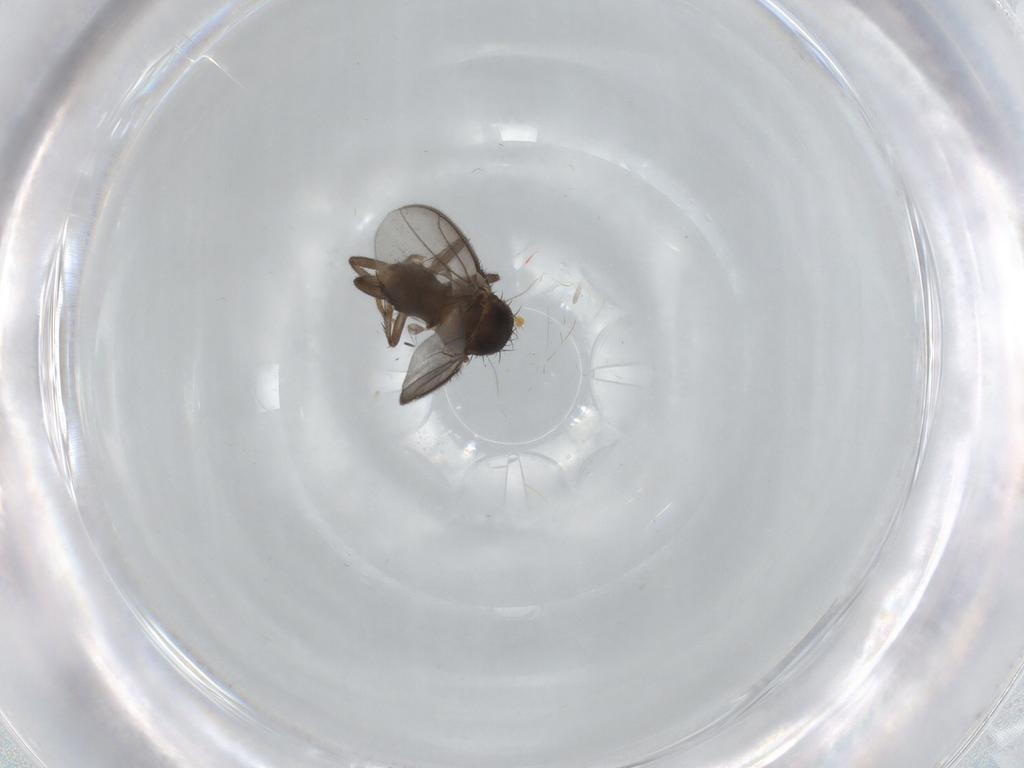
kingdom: Animalia
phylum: Arthropoda
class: Insecta
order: Diptera
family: Sphaeroceridae
